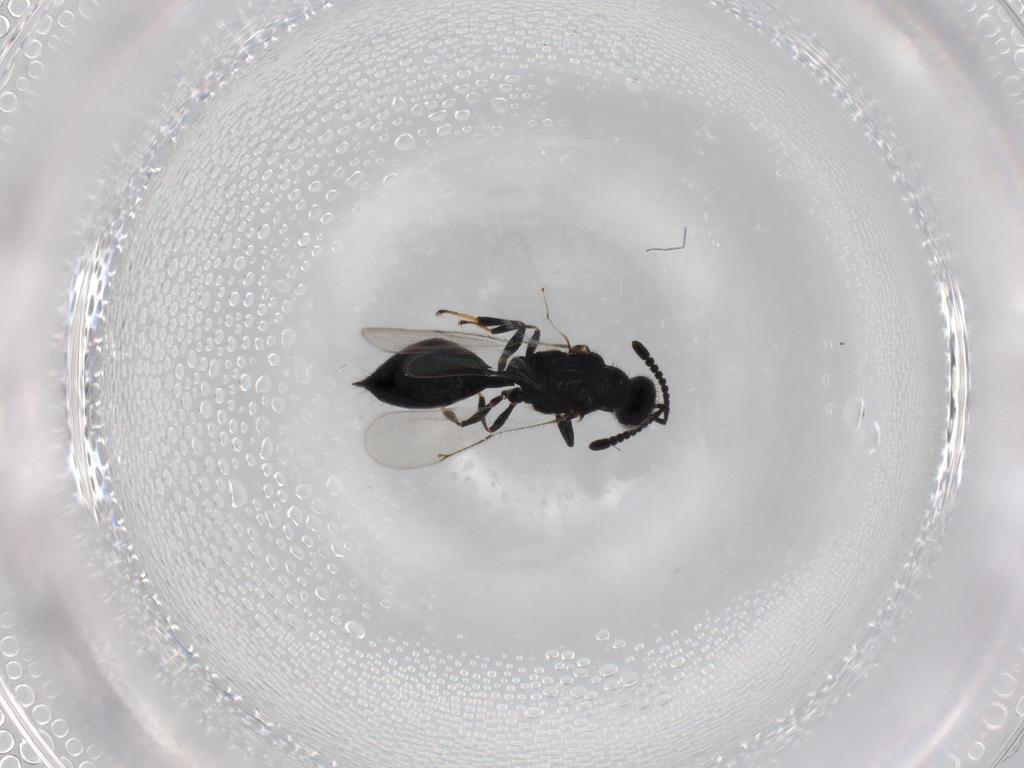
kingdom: Animalia
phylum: Arthropoda
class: Insecta
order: Hymenoptera
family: Pteromalidae
